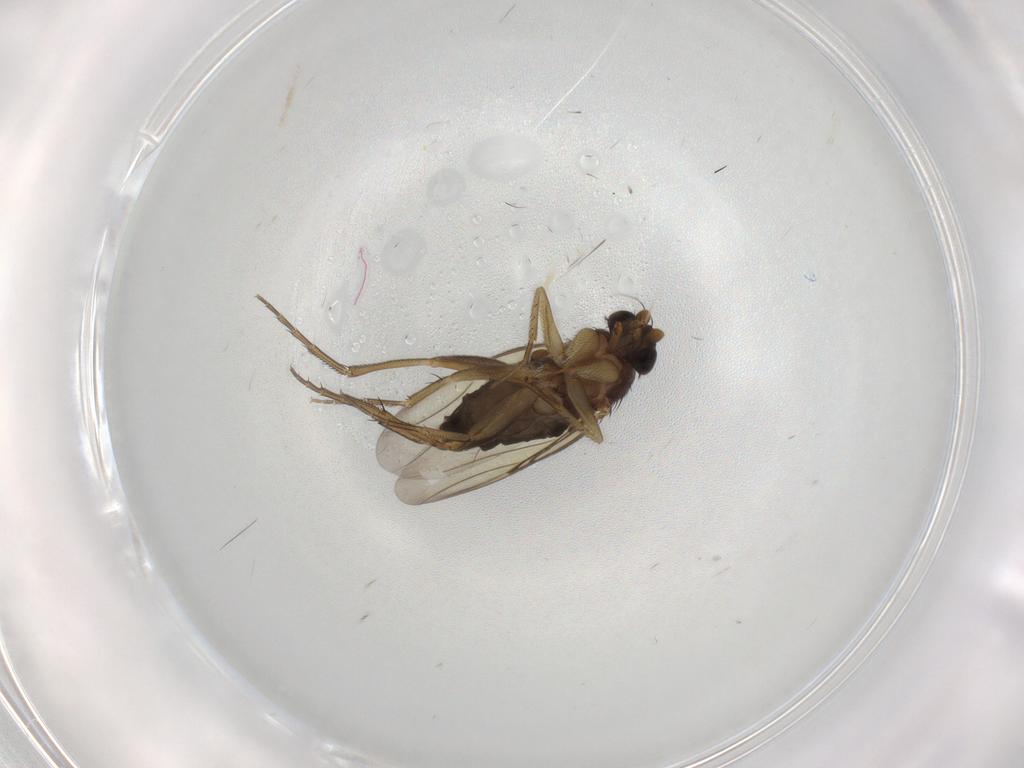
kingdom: Animalia
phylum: Arthropoda
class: Insecta
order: Diptera
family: Phoridae
